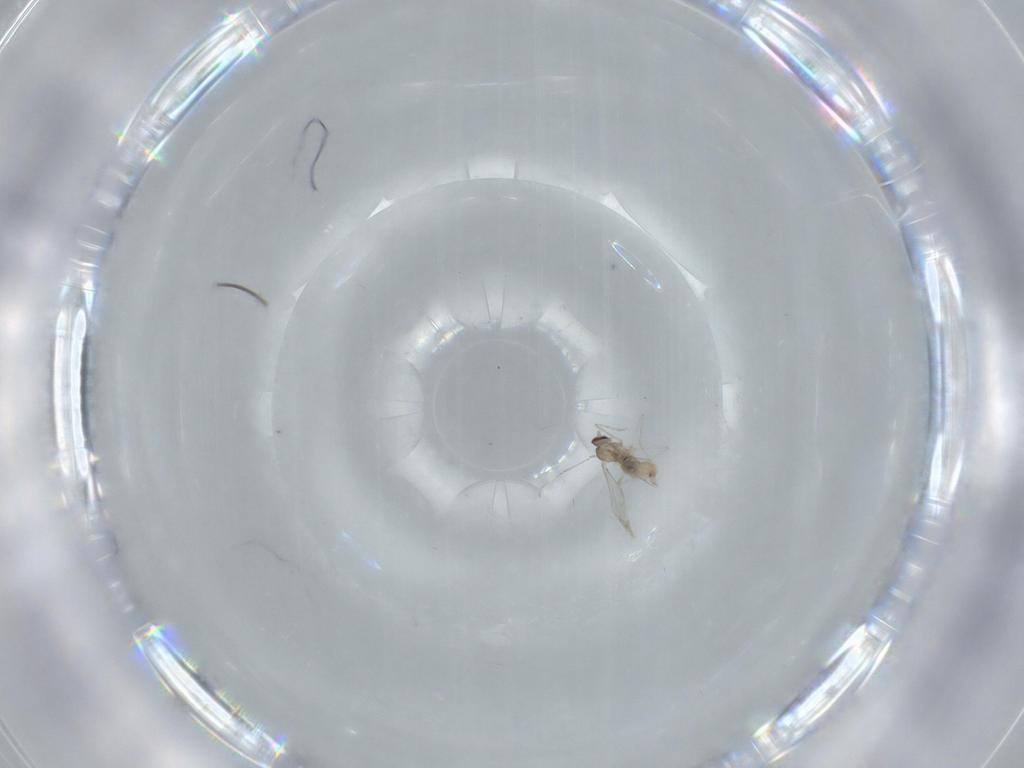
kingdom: Animalia
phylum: Arthropoda
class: Insecta
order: Diptera
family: Cecidomyiidae
